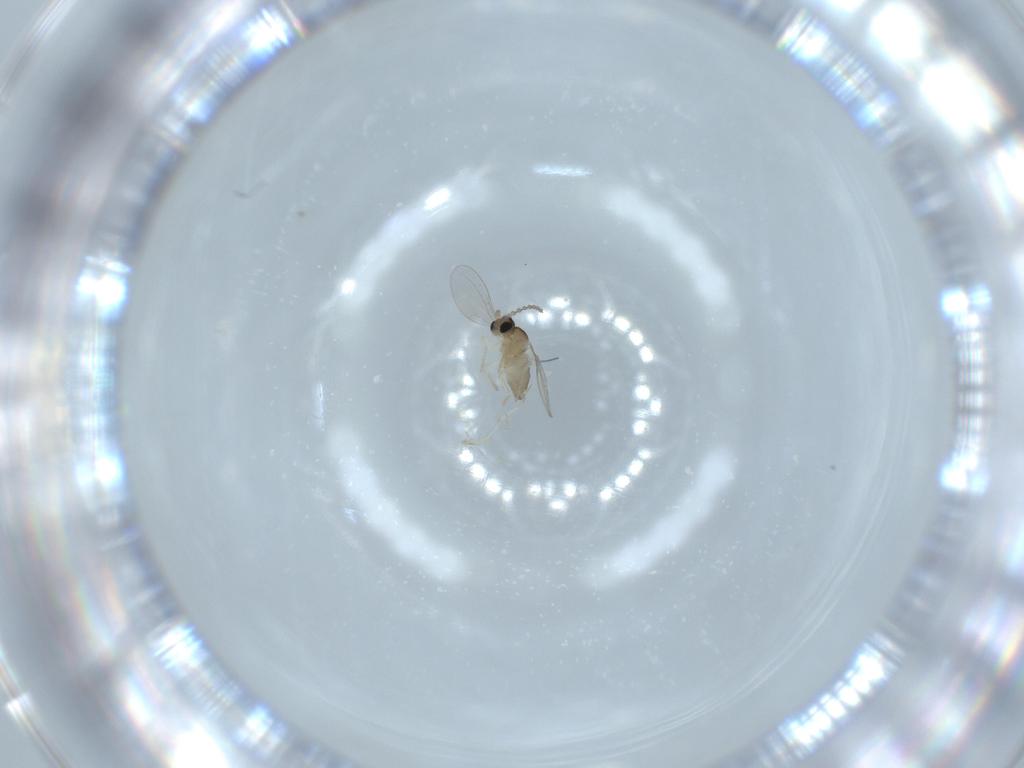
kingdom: Animalia
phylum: Arthropoda
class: Insecta
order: Diptera
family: Cecidomyiidae
